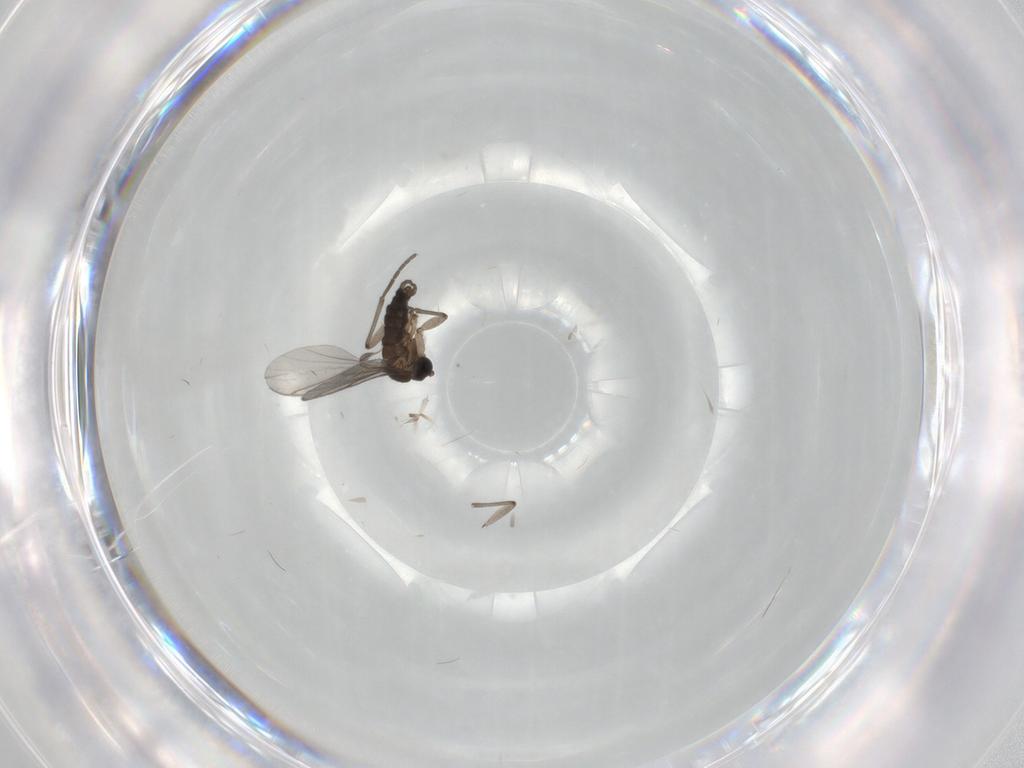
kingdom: Animalia
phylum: Arthropoda
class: Insecta
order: Diptera
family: Sciaridae
